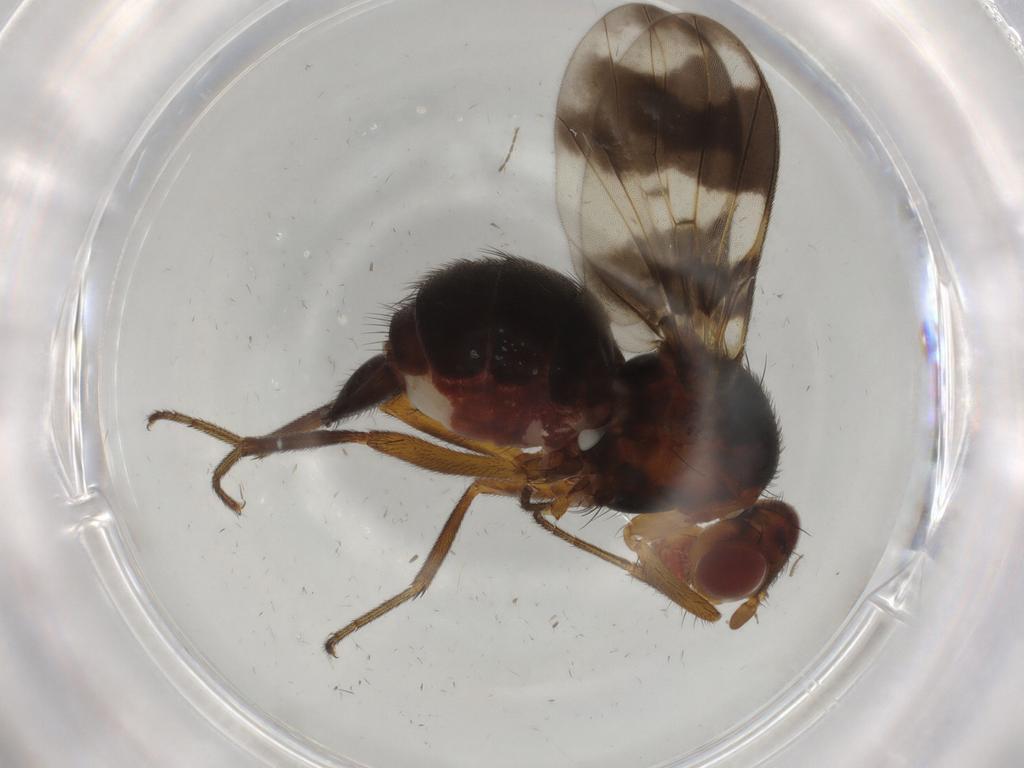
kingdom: Animalia
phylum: Arthropoda
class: Insecta
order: Diptera
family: Richardiidae
